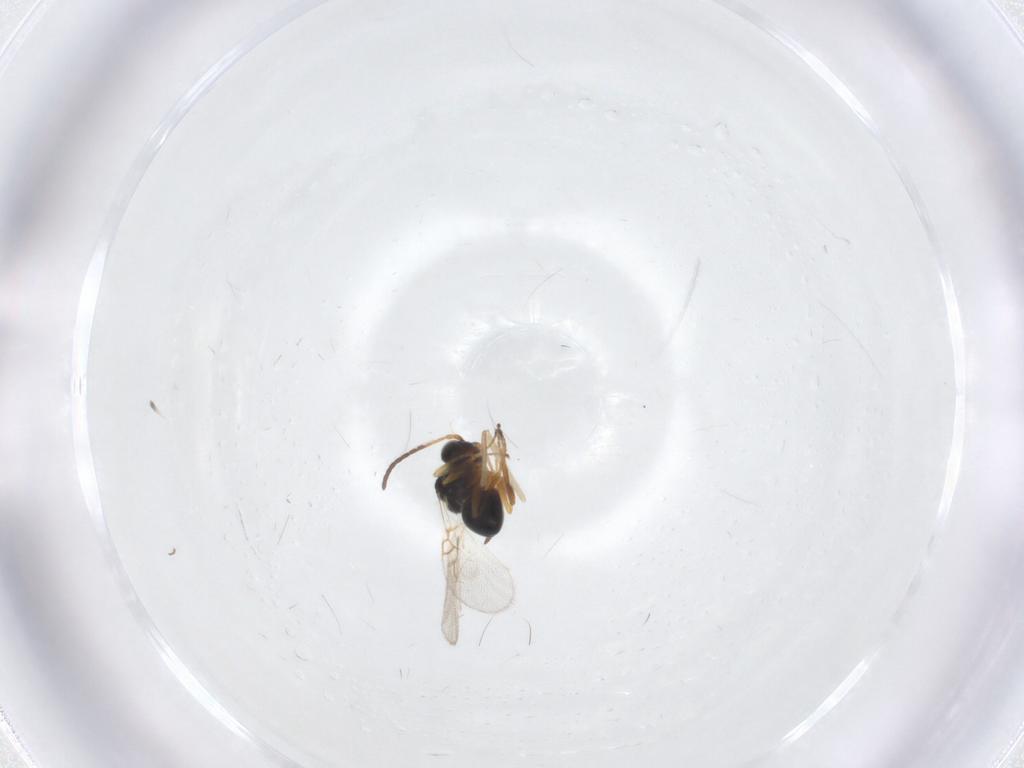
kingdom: Animalia
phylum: Arthropoda
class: Insecta
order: Hymenoptera
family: Figitidae
